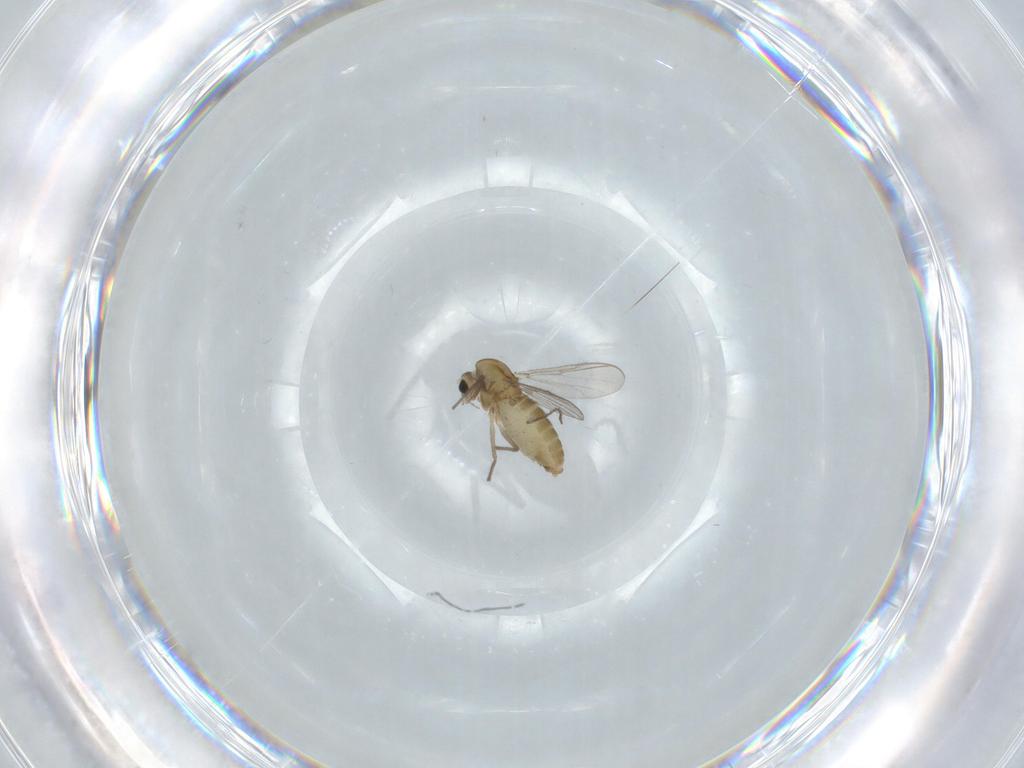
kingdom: Animalia
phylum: Arthropoda
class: Insecta
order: Diptera
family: Chironomidae
